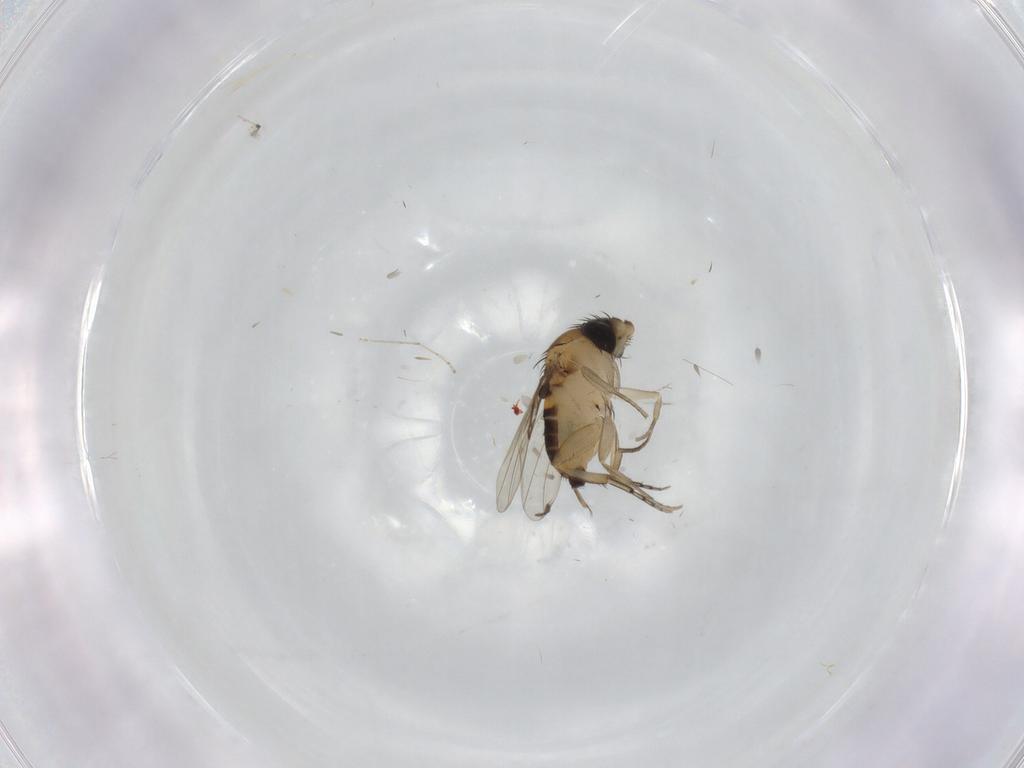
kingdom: Animalia
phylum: Arthropoda
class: Insecta
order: Diptera
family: Phoridae
